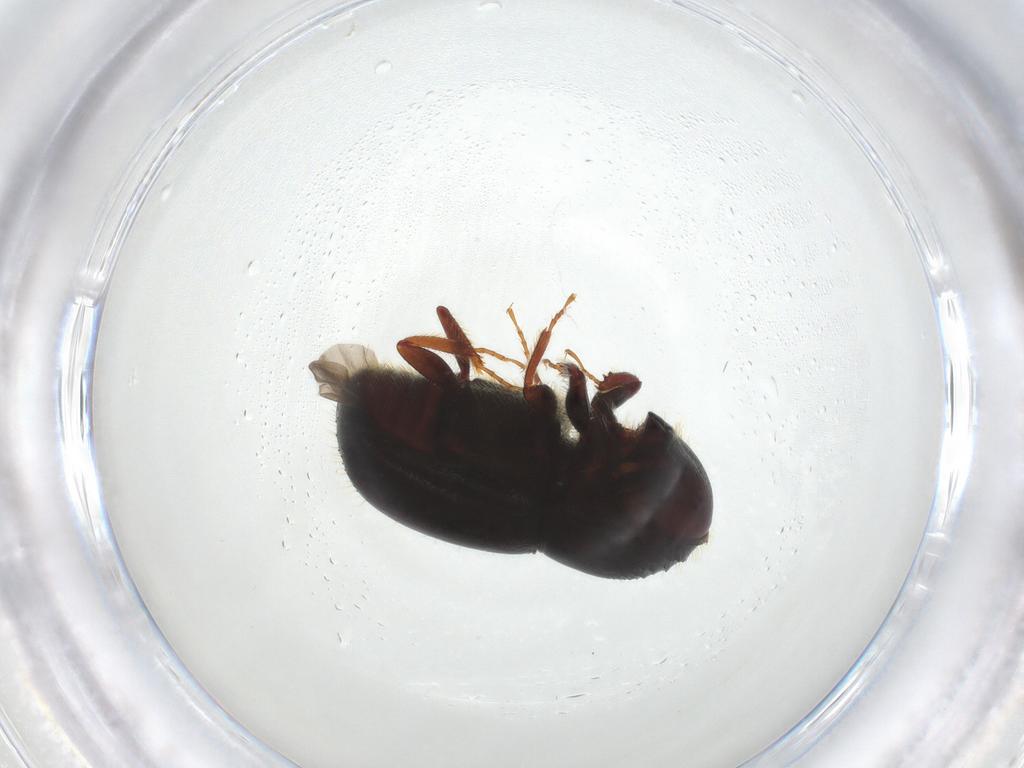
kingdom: Animalia
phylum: Arthropoda
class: Insecta
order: Coleoptera
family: Curculionidae
